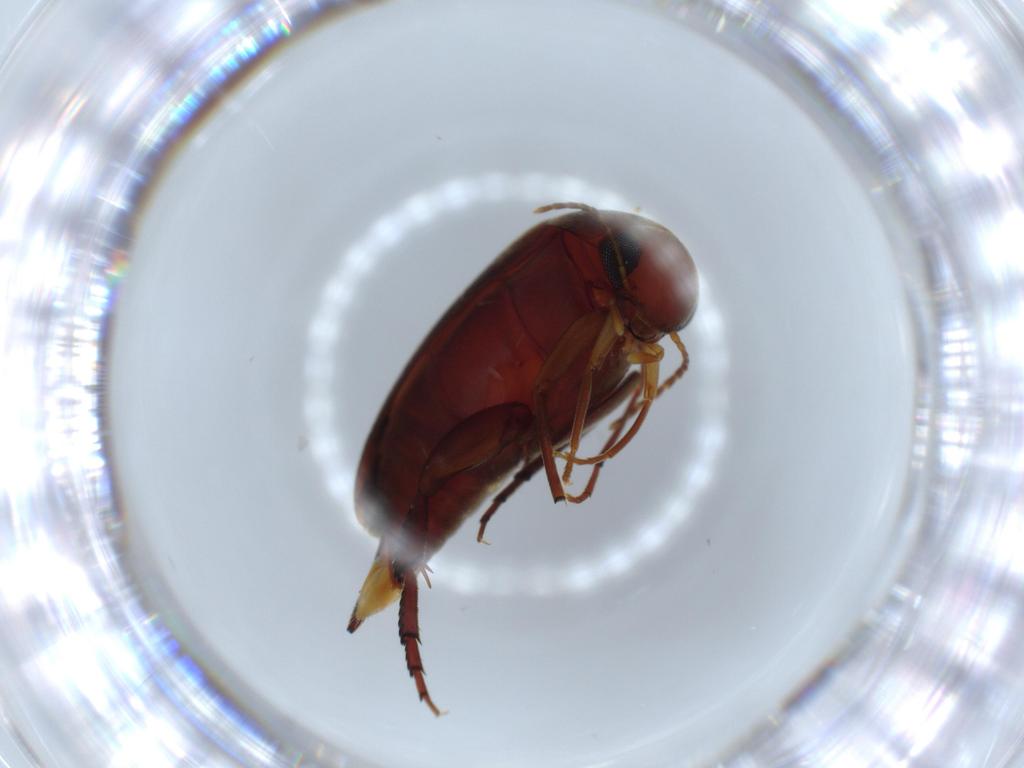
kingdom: Animalia
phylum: Arthropoda
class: Insecta
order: Coleoptera
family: Mordellidae
